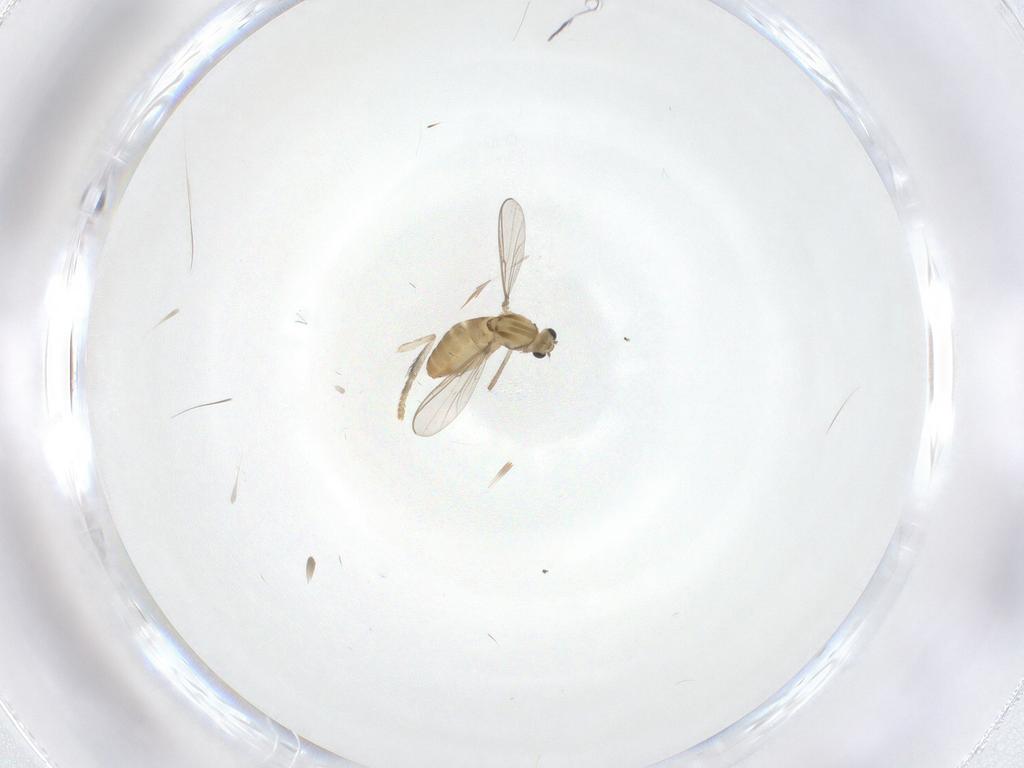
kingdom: Animalia
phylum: Arthropoda
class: Insecta
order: Diptera
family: Chironomidae
